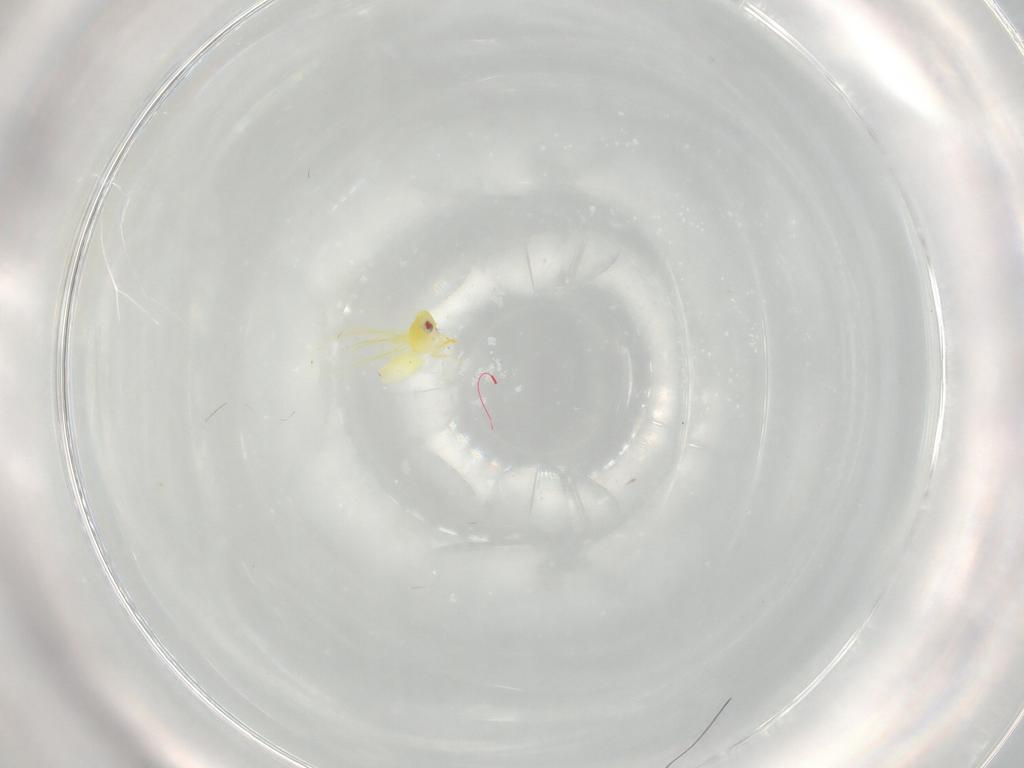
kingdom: Animalia
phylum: Arthropoda
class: Insecta
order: Hemiptera
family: Aleyrodidae
